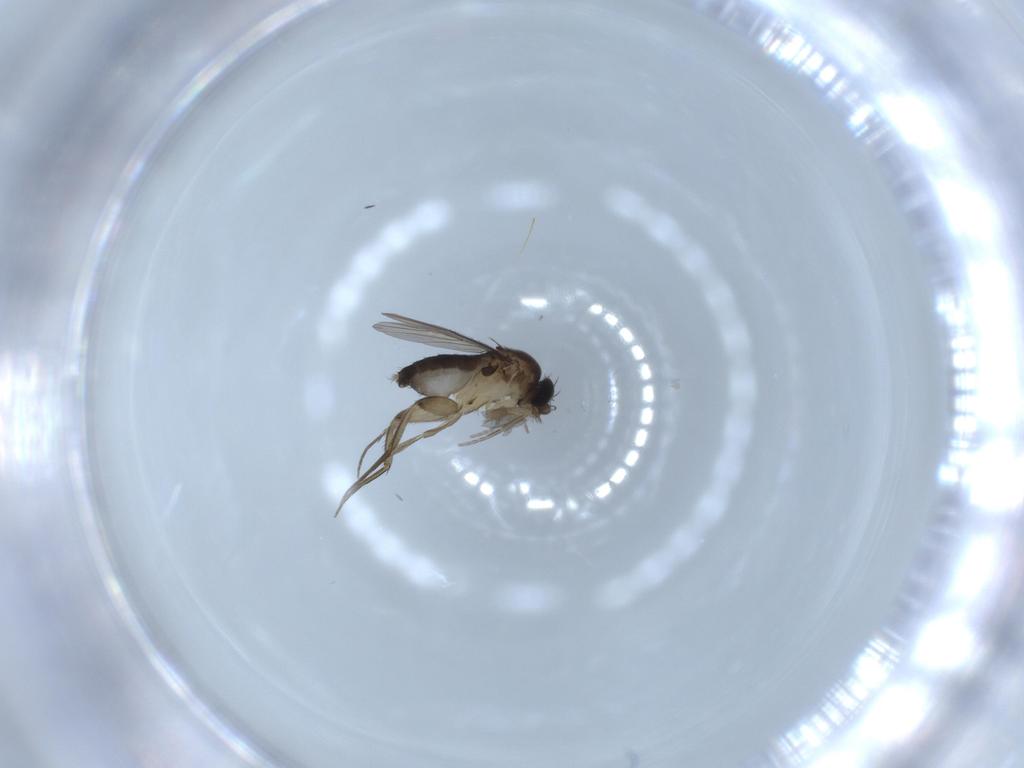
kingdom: Animalia
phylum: Arthropoda
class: Insecta
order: Diptera
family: Phoridae
